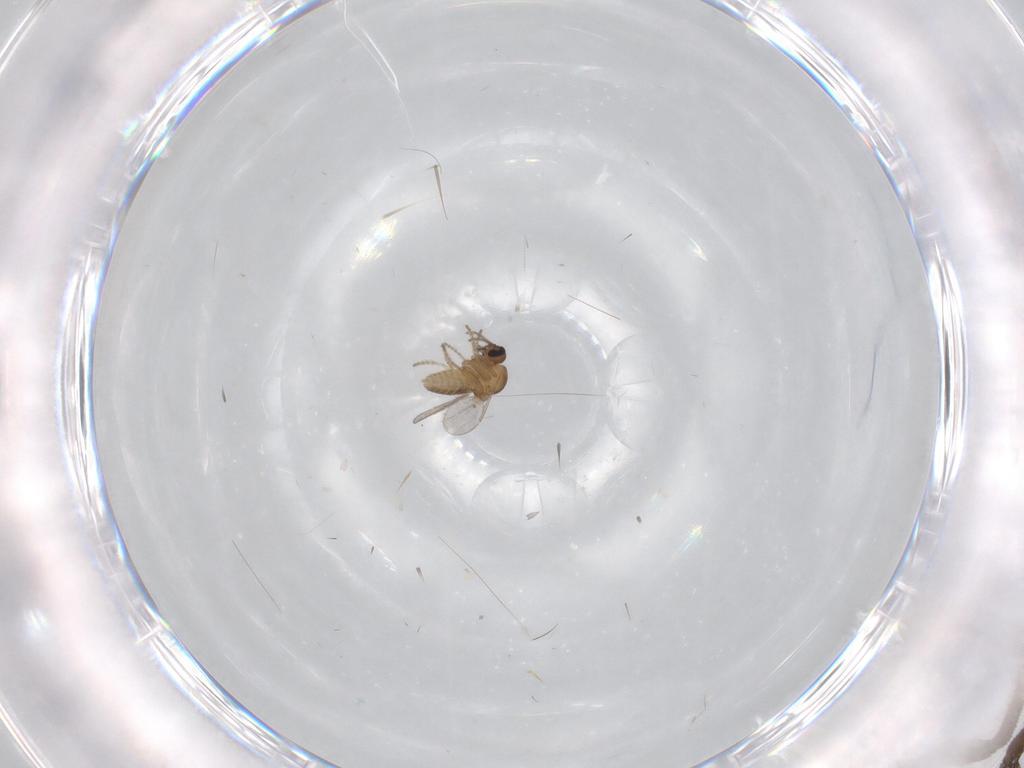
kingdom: Animalia
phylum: Arthropoda
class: Insecta
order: Diptera
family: Ceratopogonidae
